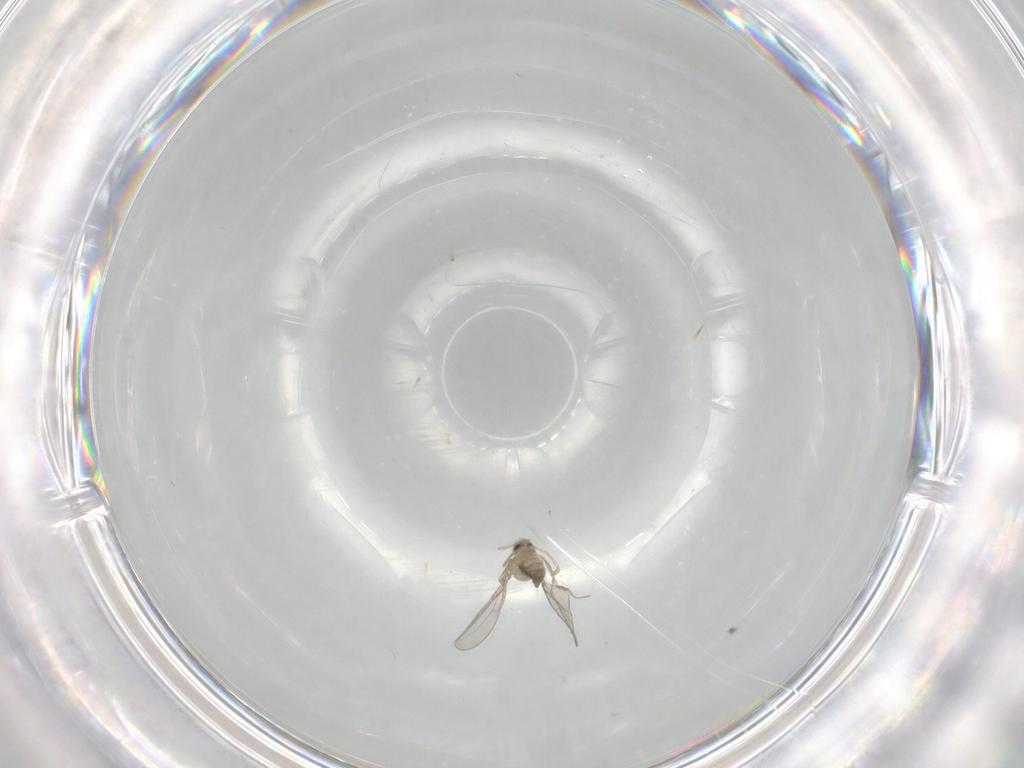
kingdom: Animalia
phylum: Arthropoda
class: Insecta
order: Diptera
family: Cecidomyiidae
